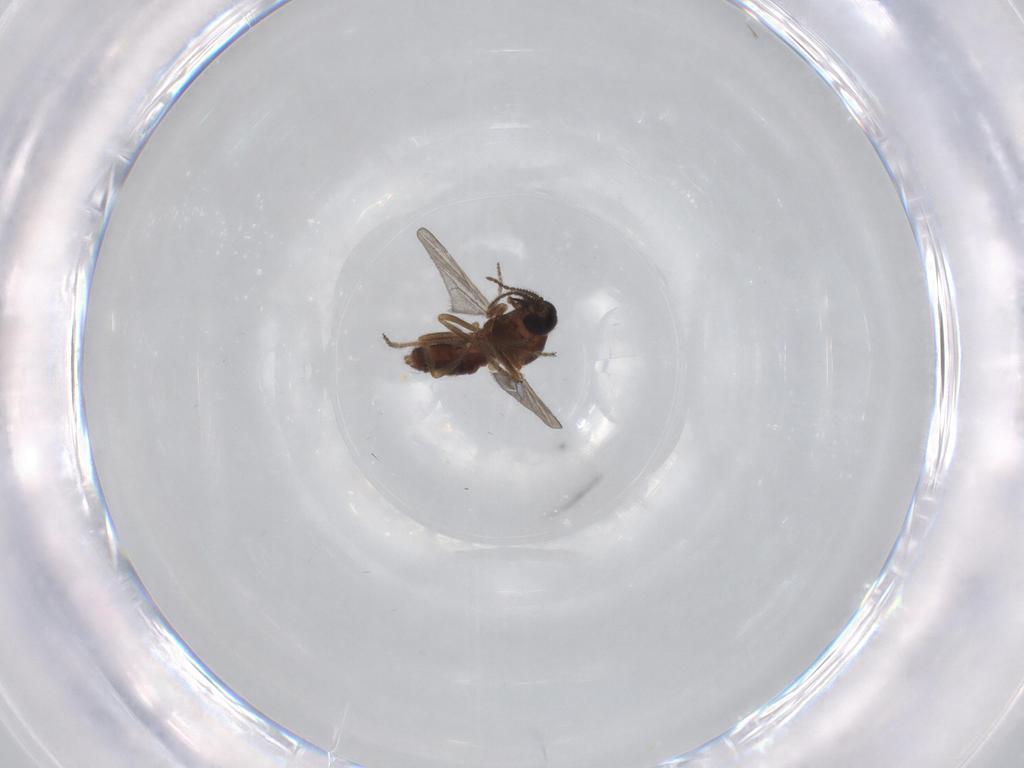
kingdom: Animalia
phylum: Arthropoda
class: Insecta
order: Diptera
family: Ceratopogonidae
